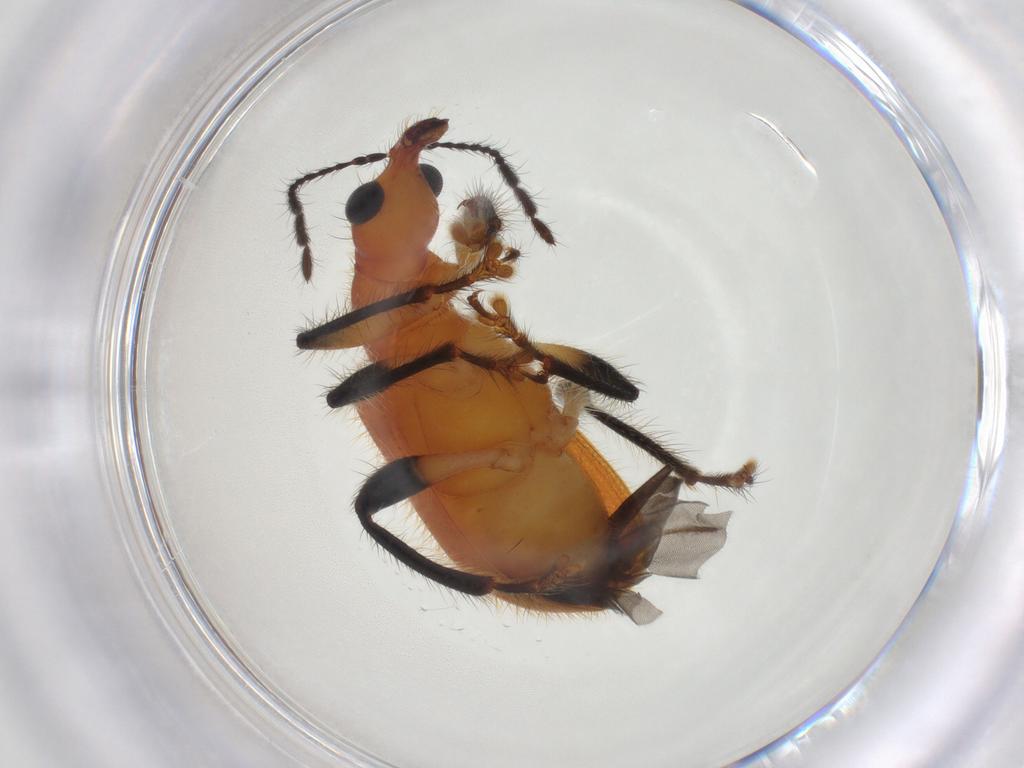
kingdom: Animalia
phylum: Arthropoda
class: Insecta
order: Coleoptera
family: Attelabidae
